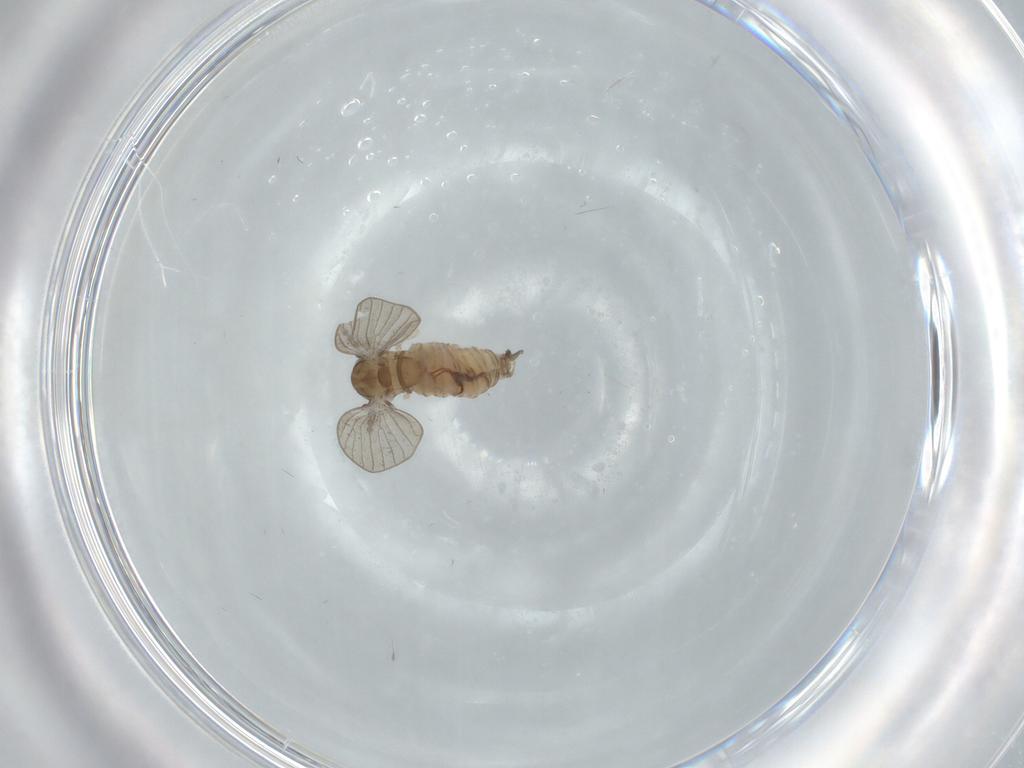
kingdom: Animalia
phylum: Arthropoda
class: Insecta
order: Diptera
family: Psychodidae
